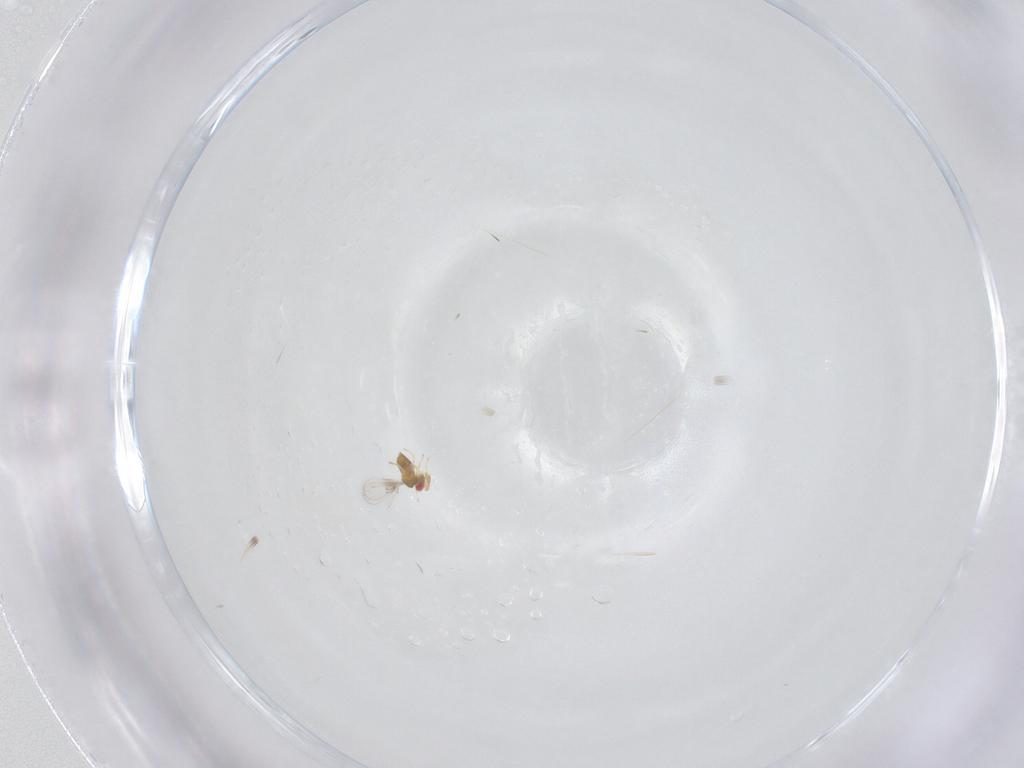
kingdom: Animalia
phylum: Arthropoda
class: Insecta
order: Hymenoptera
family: Trichogrammatidae
